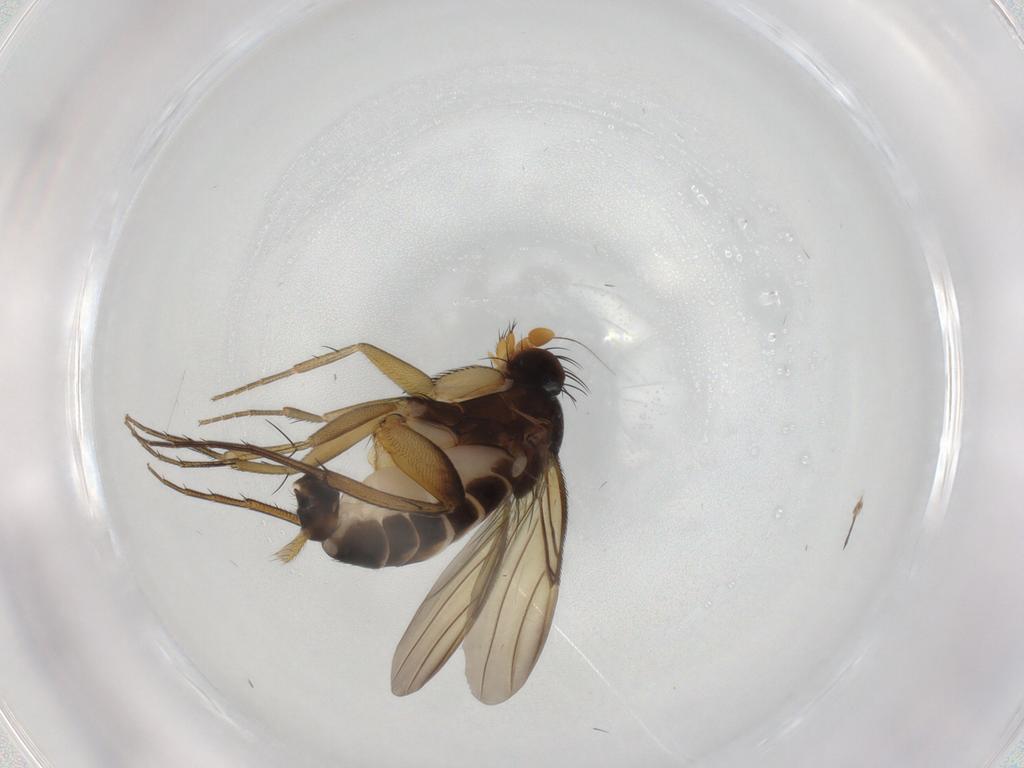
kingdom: Animalia
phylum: Arthropoda
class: Insecta
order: Diptera
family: Phoridae
